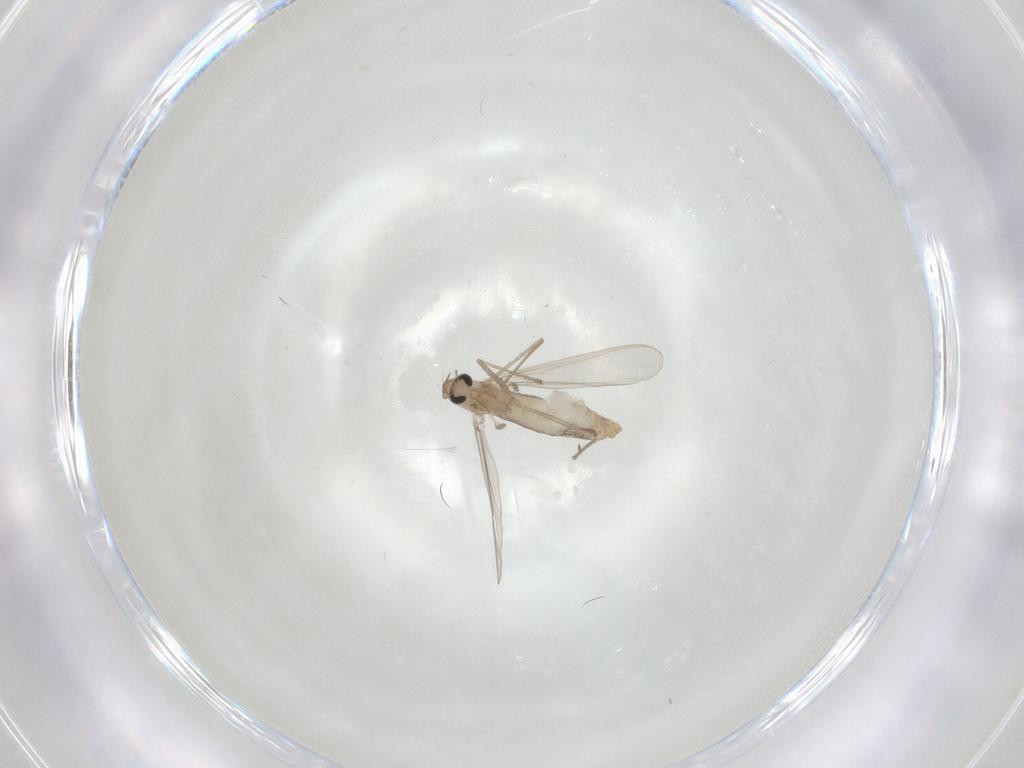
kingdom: Animalia
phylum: Arthropoda
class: Insecta
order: Diptera
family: Chironomidae
